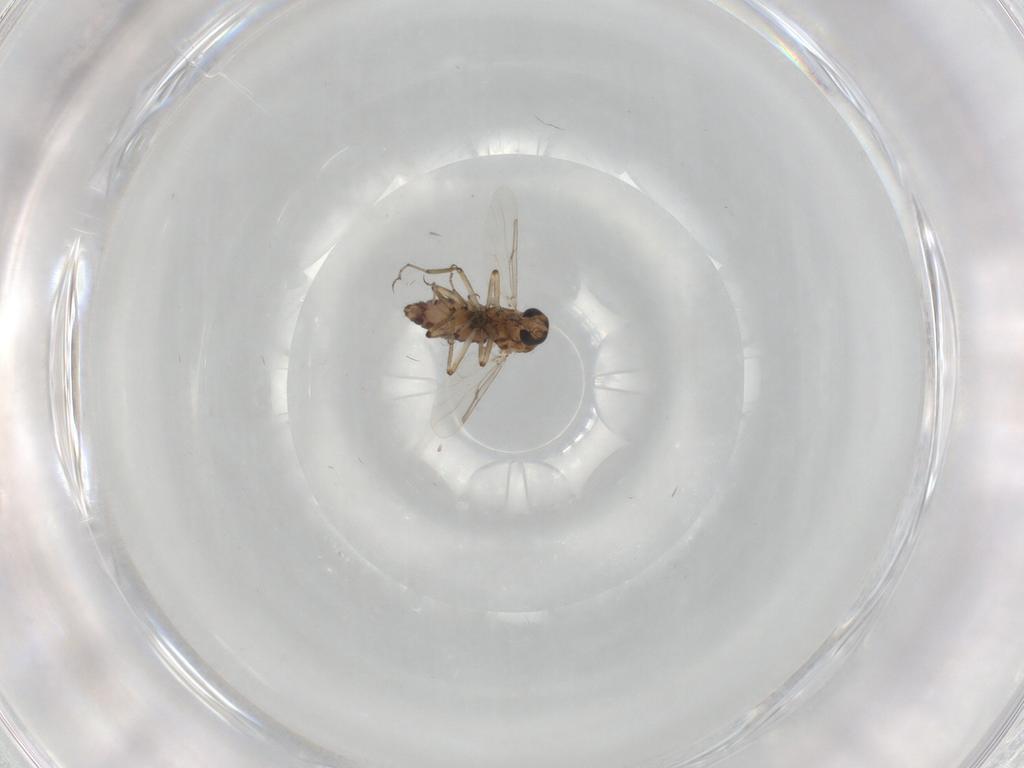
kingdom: Animalia
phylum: Arthropoda
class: Insecta
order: Diptera
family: Ceratopogonidae
